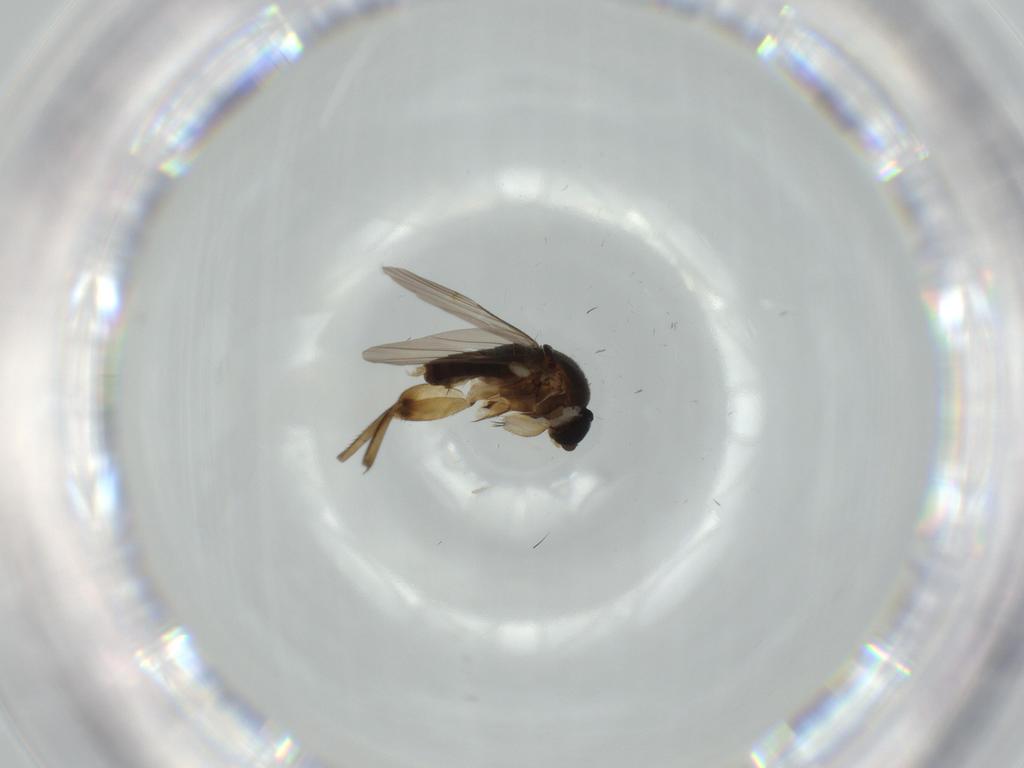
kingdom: Animalia
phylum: Arthropoda
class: Insecta
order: Diptera
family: Phoridae
